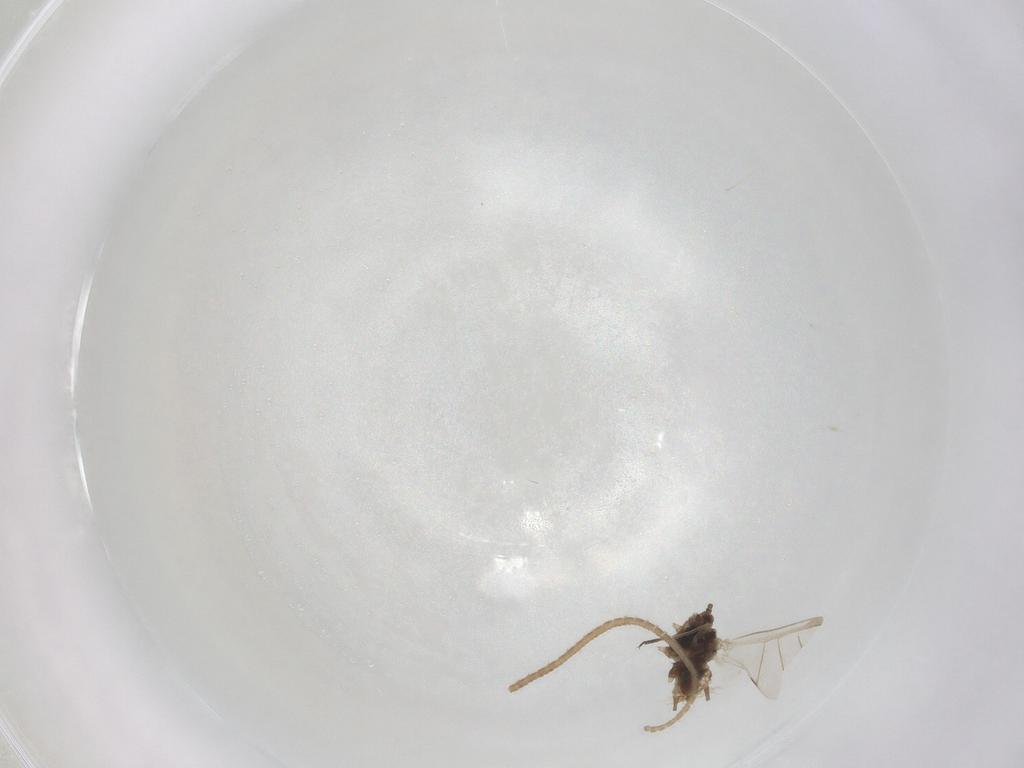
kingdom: Animalia
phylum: Arthropoda
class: Insecta
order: Hemiptera
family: Aphididae
